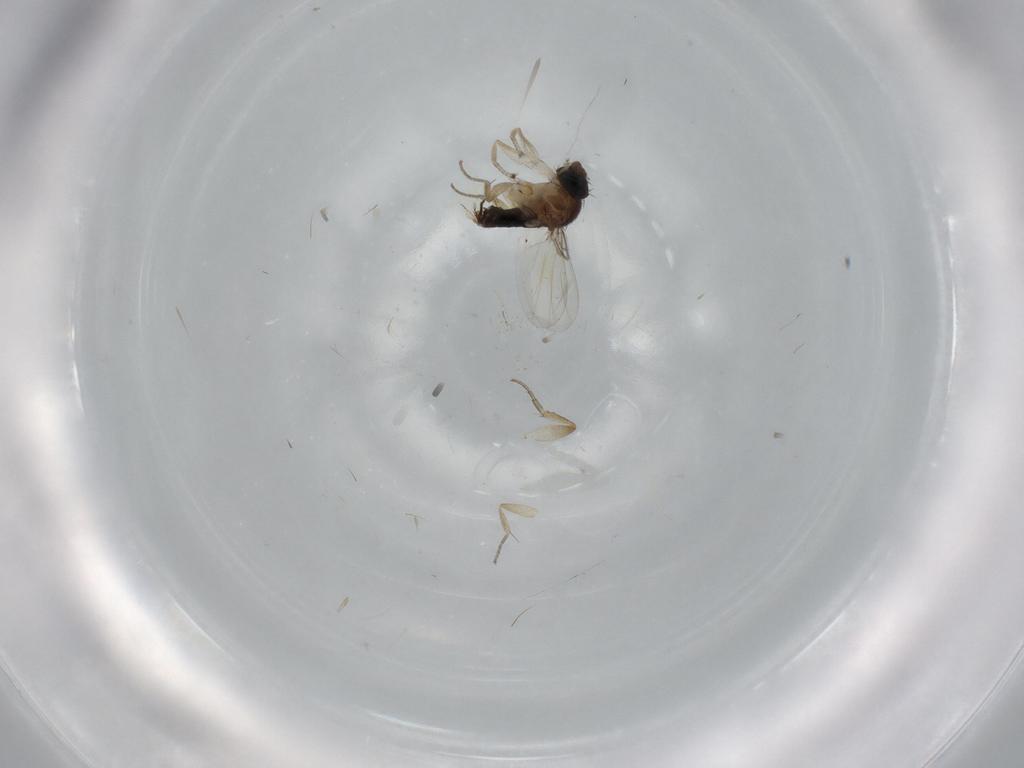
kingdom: Animalia
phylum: Arthropoda
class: Insecta
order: Diptera
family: Phoridae
